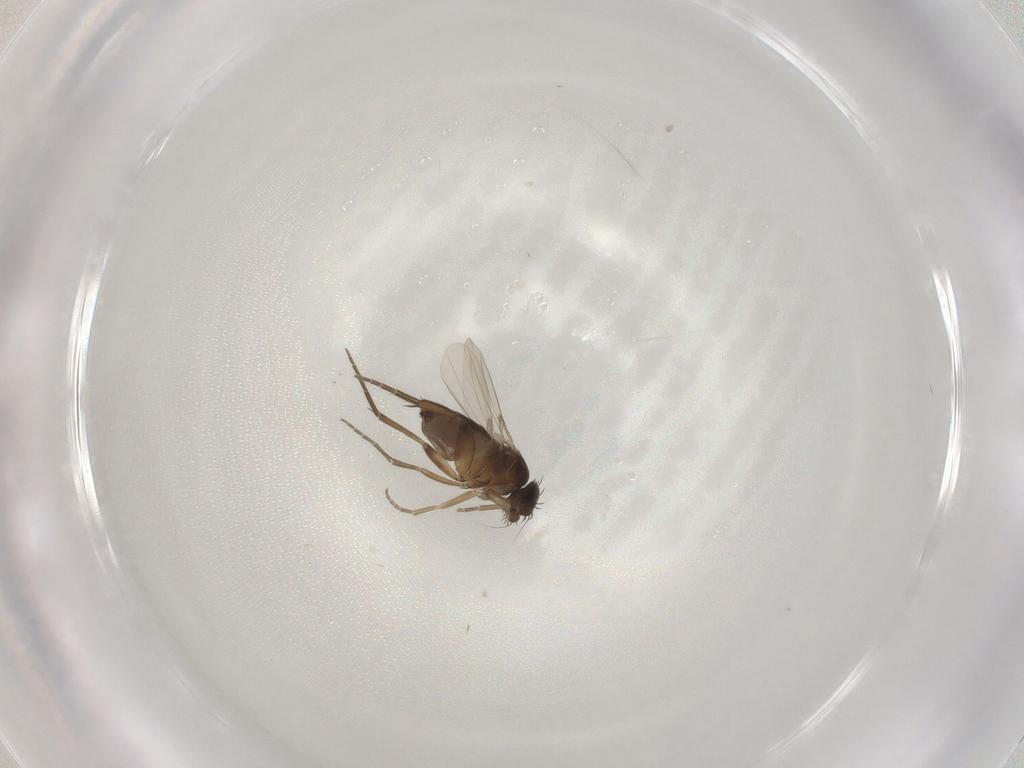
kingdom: Animalia
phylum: Arthropoda
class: Insecta
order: Diptera
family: Phoridae
